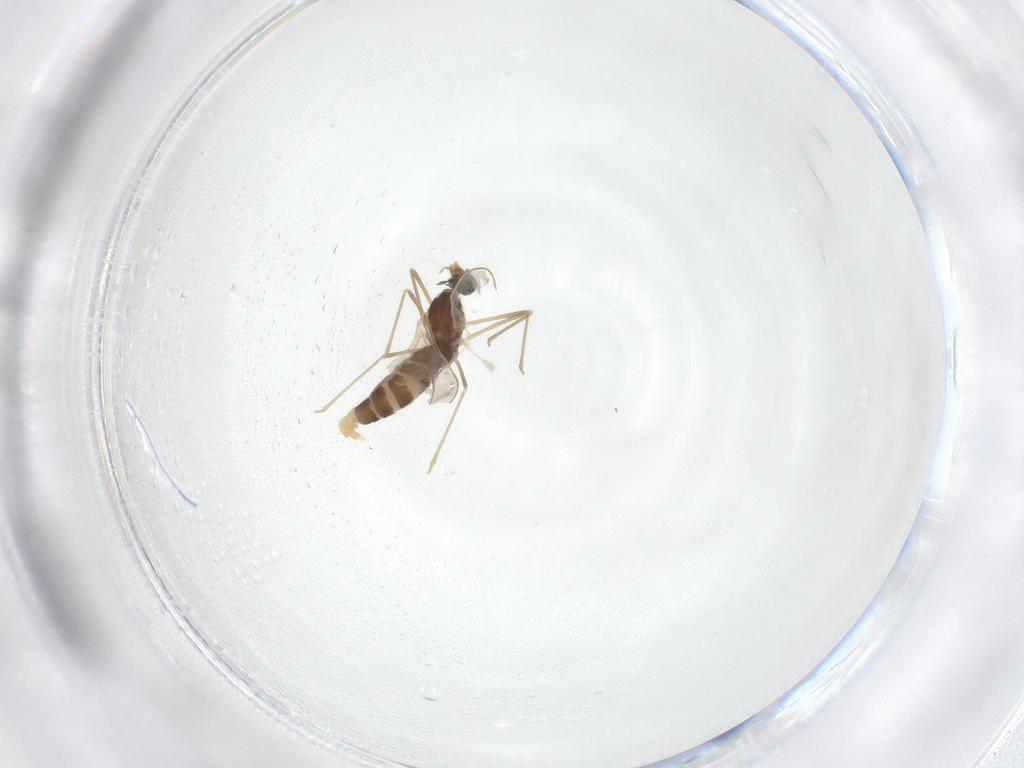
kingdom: Animalia
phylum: Arthropoda
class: Insecta
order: Diptera
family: Cecidomyiidae
